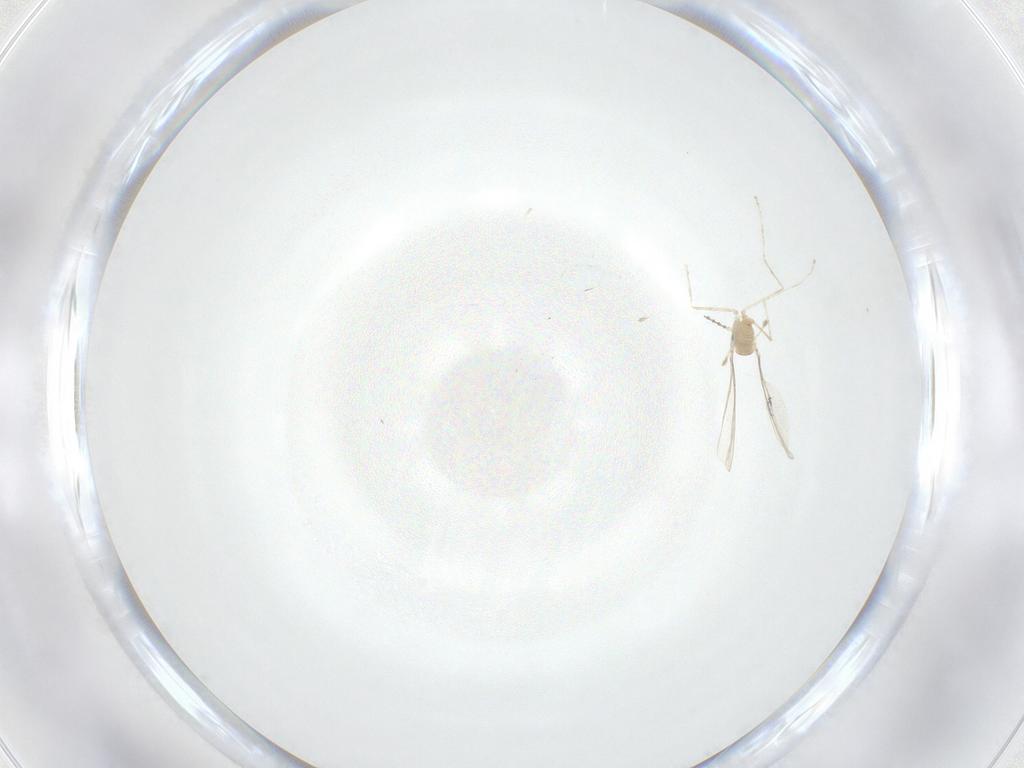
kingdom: Animalia
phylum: Arthropoda
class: Insecta
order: Diptera
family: Ceratopogonidae
